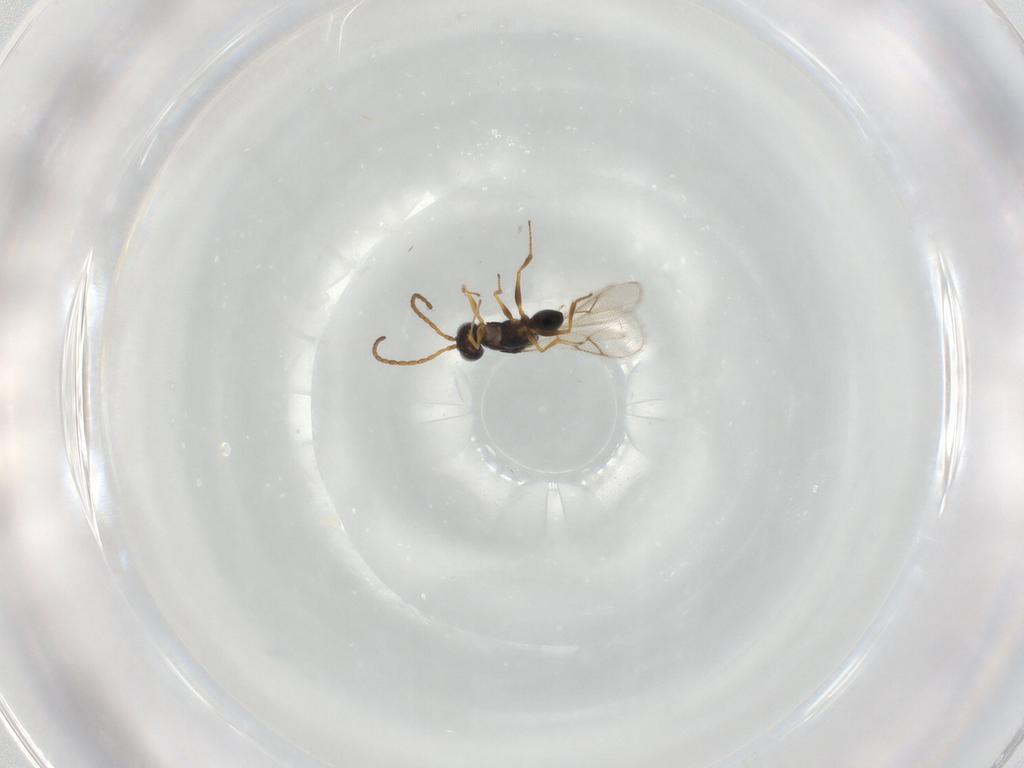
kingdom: Animalia
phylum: Arthropoda
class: Insecta
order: Hymenoptera
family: Figitidae
